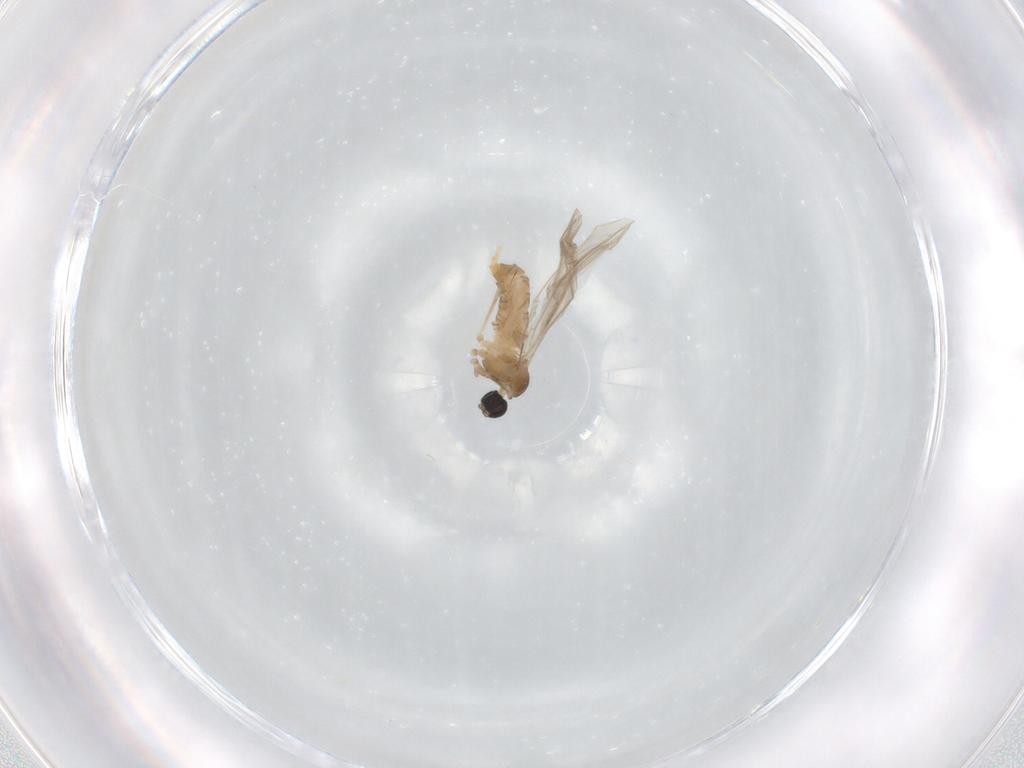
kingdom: Animalia
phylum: Arthropoda
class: Insecta
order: Diptera
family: Cecidomyiidae
